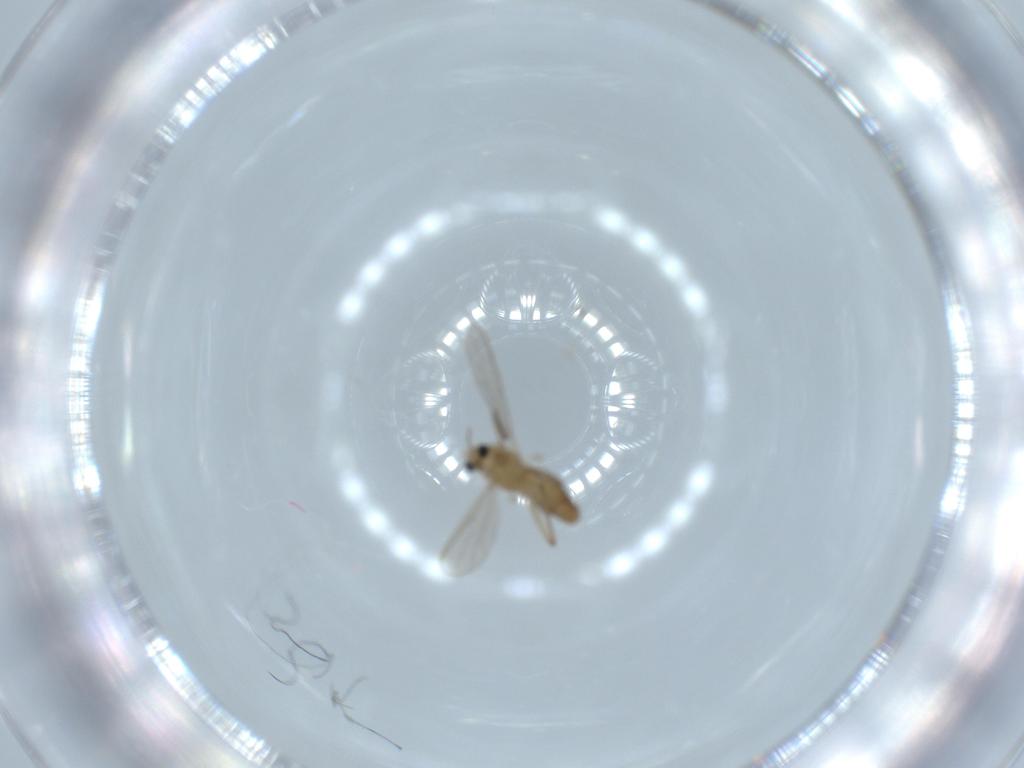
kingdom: Animalia
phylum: Arthropoda
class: Insecta
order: Diptera
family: Chironomidae
